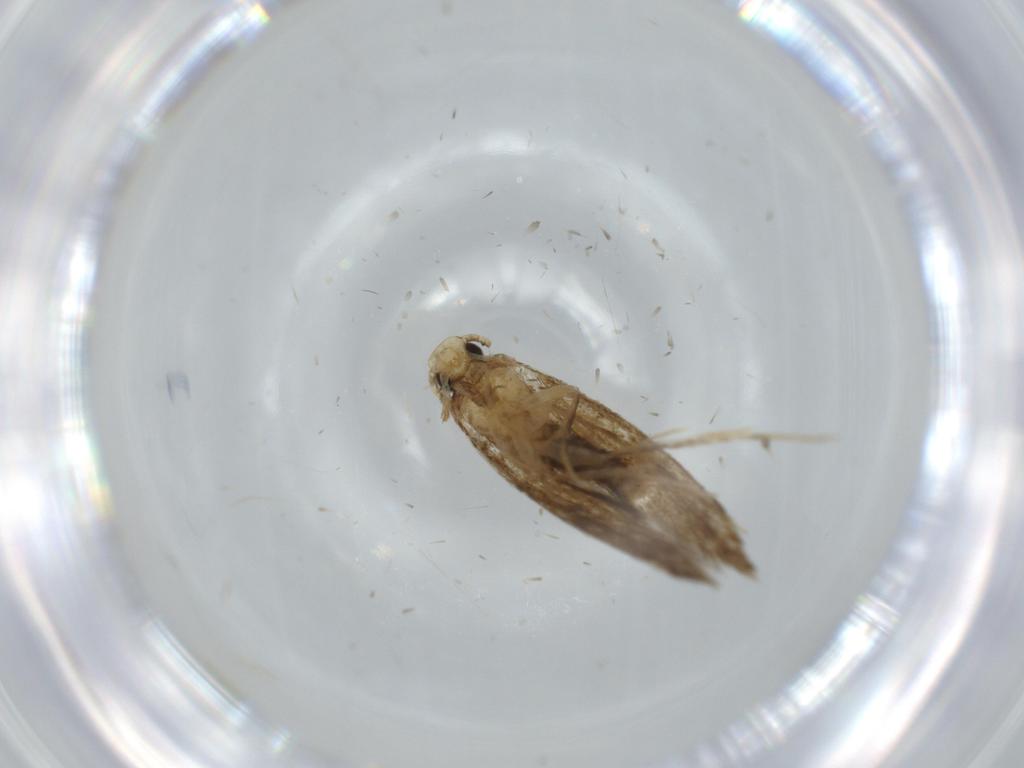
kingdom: Animalia
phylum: Arthropoda
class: Insecta
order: Lepidoptera
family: Tineidae
